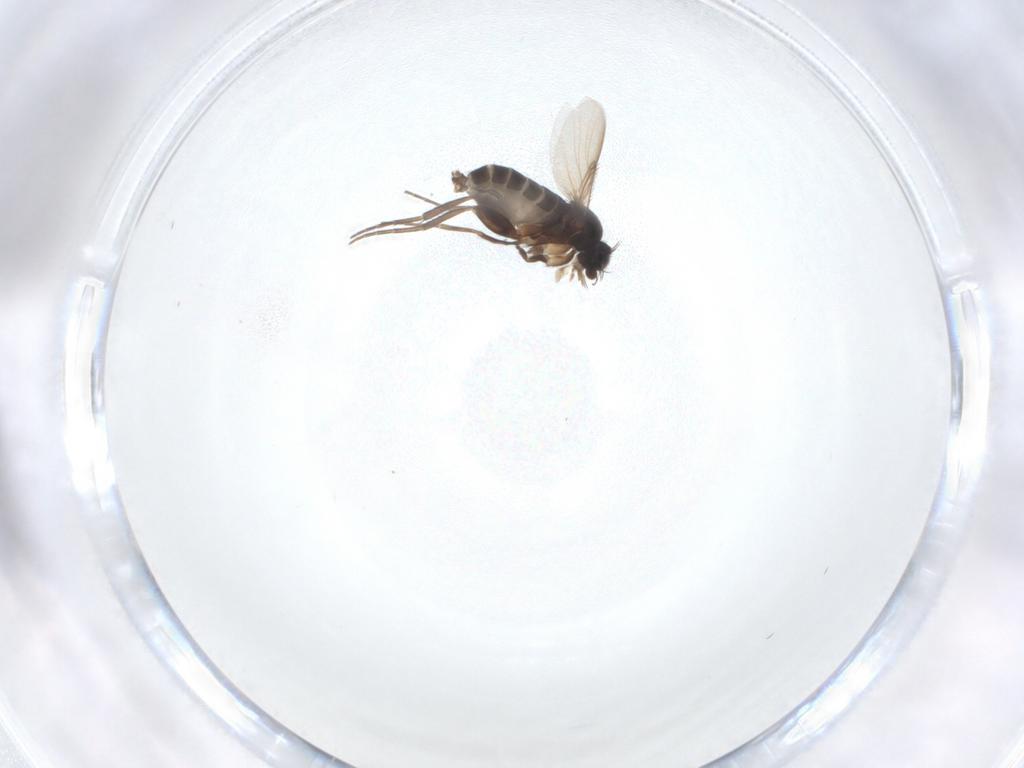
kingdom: Animalia
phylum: Arthropoda
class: Insecta
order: Diptera
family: Phoridae
